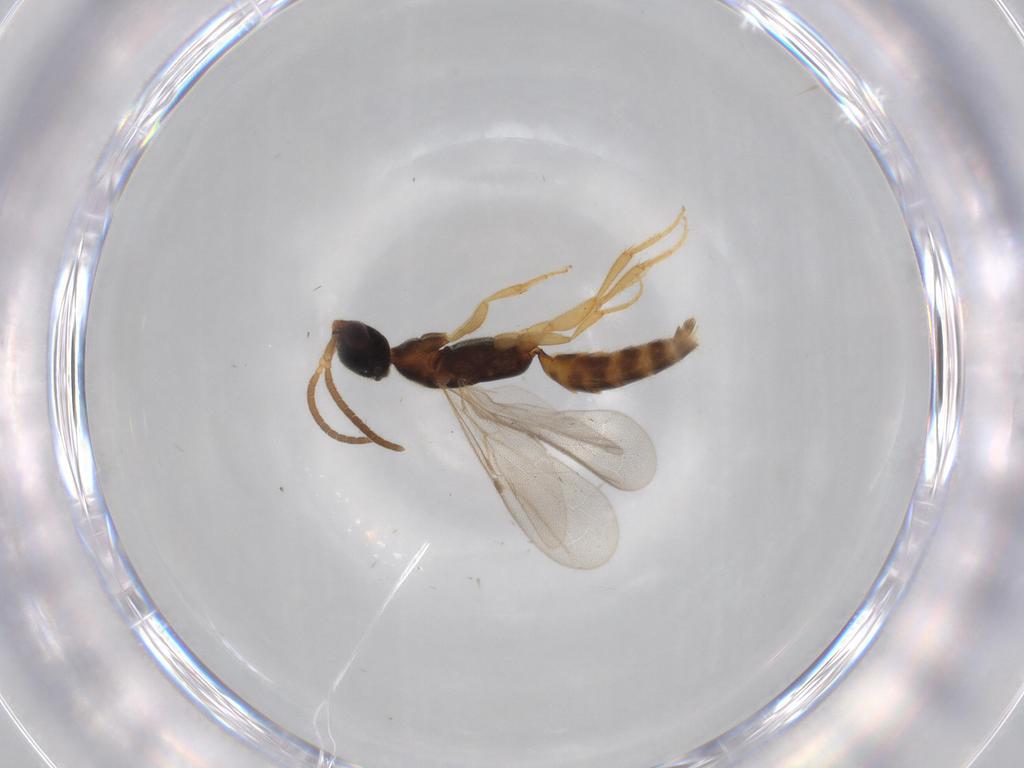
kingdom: Animalia
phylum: Arthropoda
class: Insecta
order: Hymenoptera
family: Bethylidae
